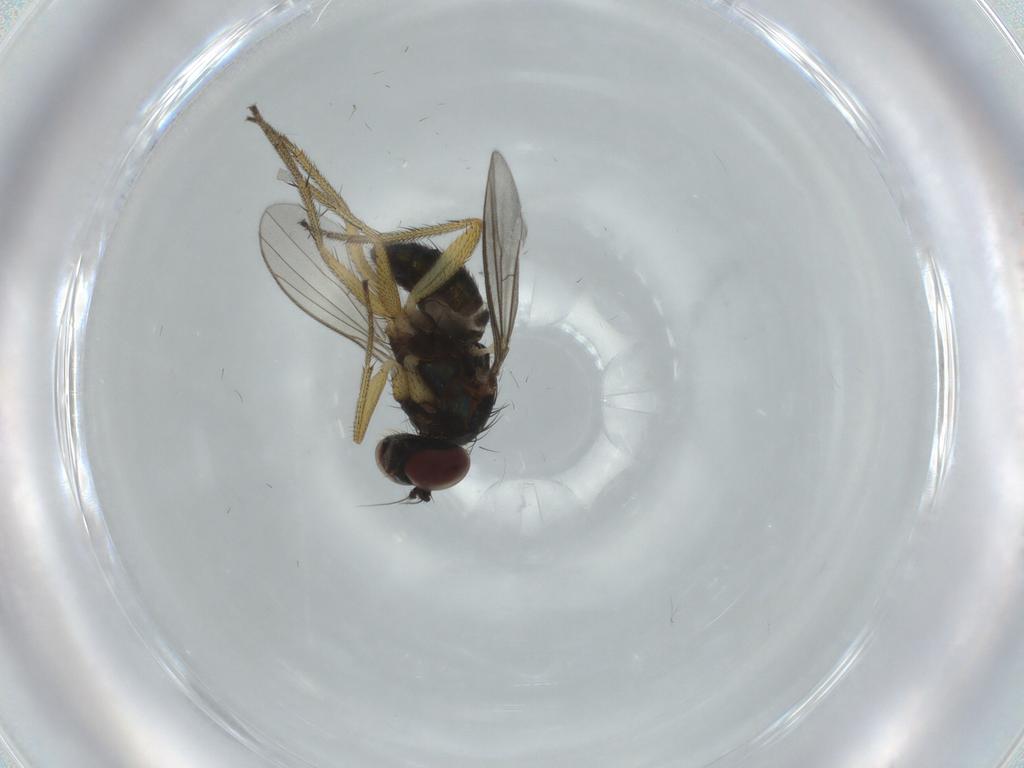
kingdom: Animalia
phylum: Arthropoda
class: Insecta
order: Diptera
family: Dolichopodidae
